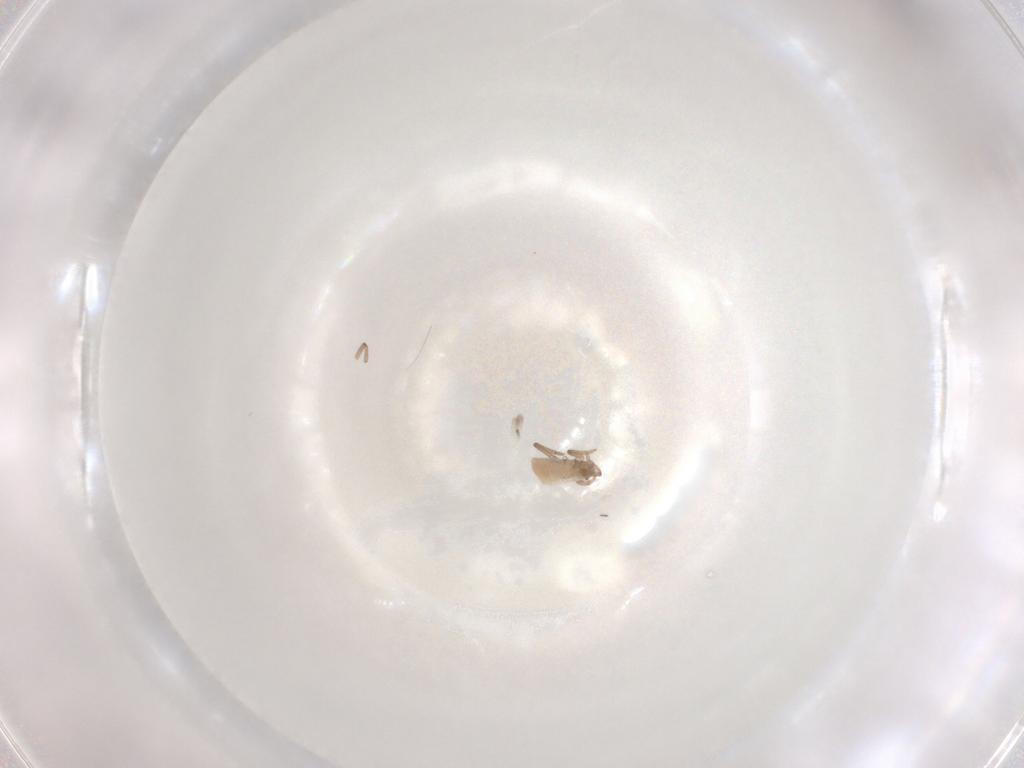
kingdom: Animalia
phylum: Arthropoda
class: Insecta
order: Hemiptera
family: Aphididae
